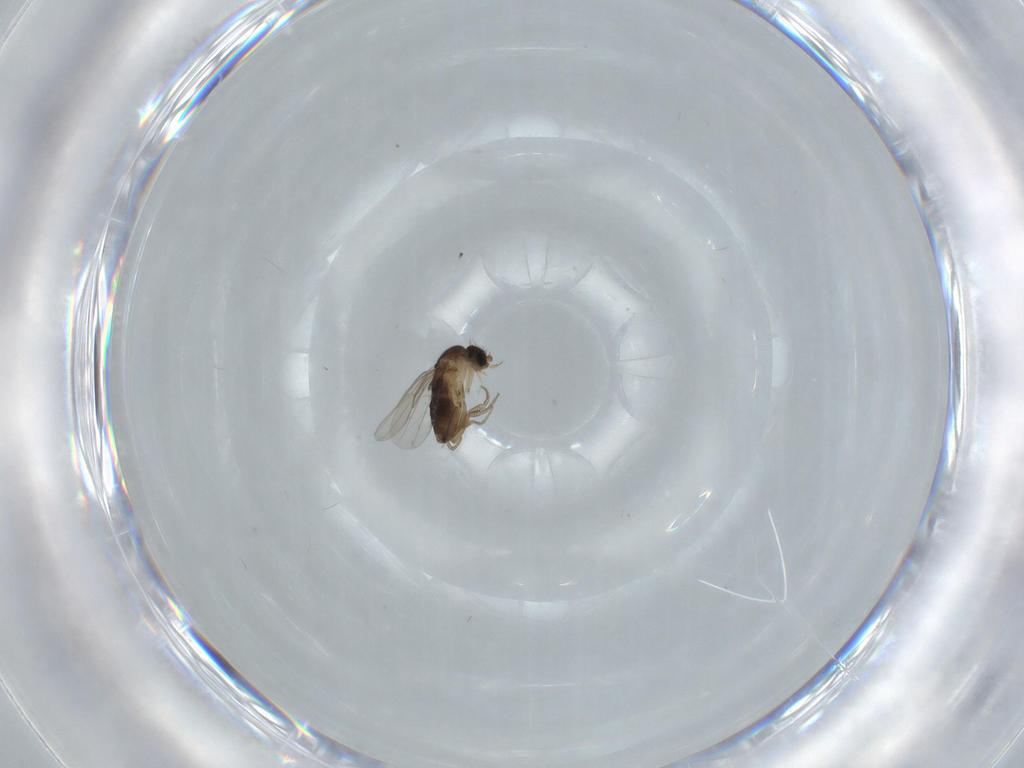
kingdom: Animalia
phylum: Arthropoda
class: Insecta
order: Diptera
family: Phoridae
